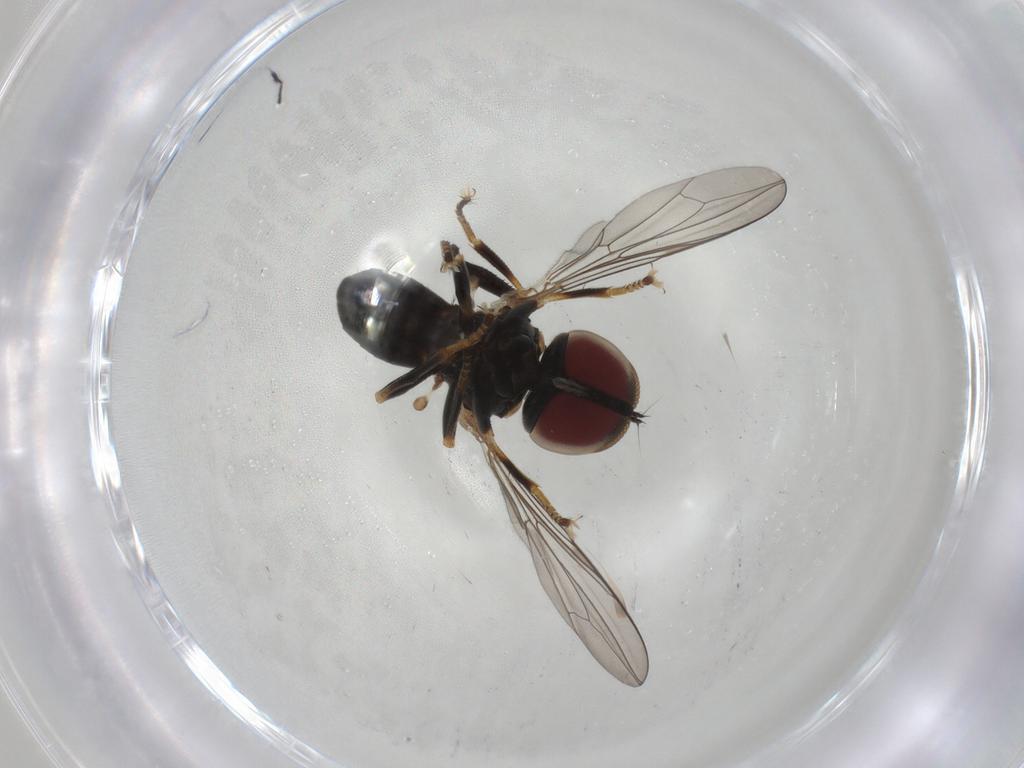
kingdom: Animalia
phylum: Arthropoda
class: Insecta
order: Diptera
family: Pipunculidae
